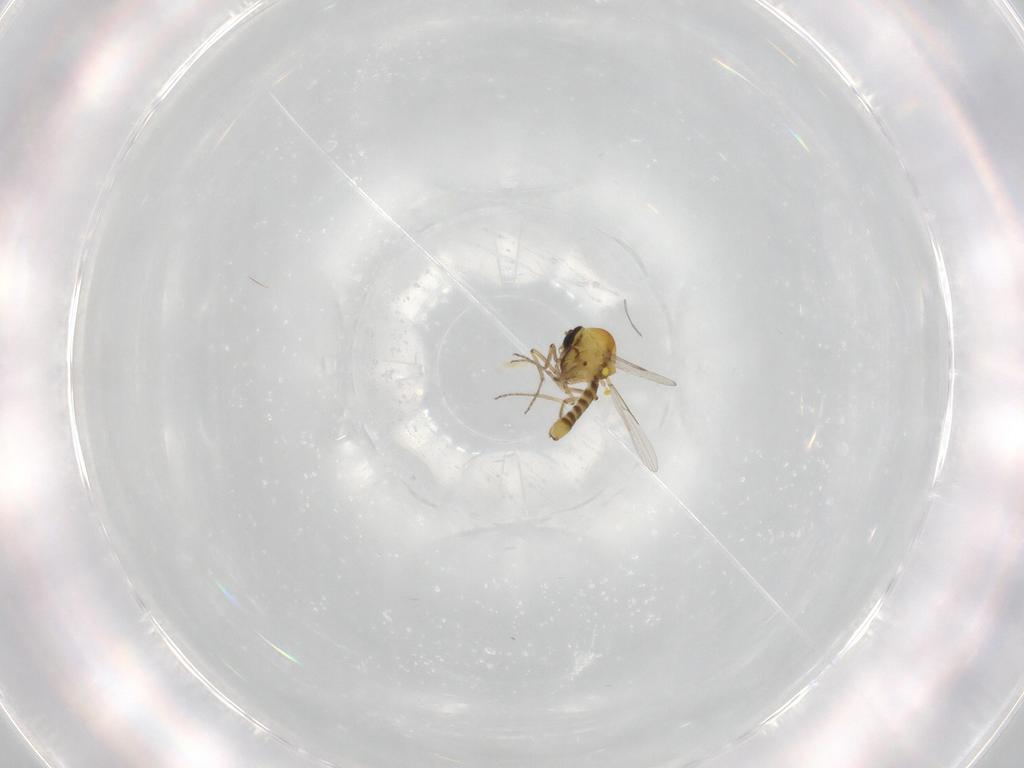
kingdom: Animalia
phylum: Arthropoda
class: Insecta
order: Diptera
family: Ceratopogonidae
